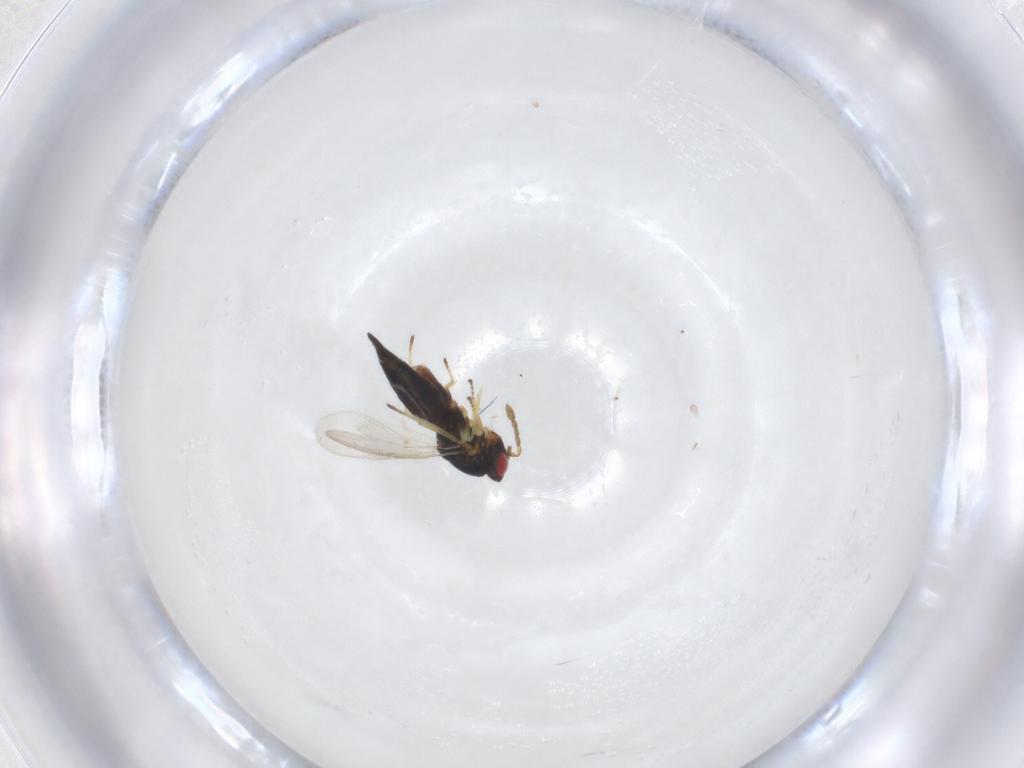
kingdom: Animalia
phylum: Arthropoda
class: Insecta
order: Hymenoptera
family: Eulophidae
